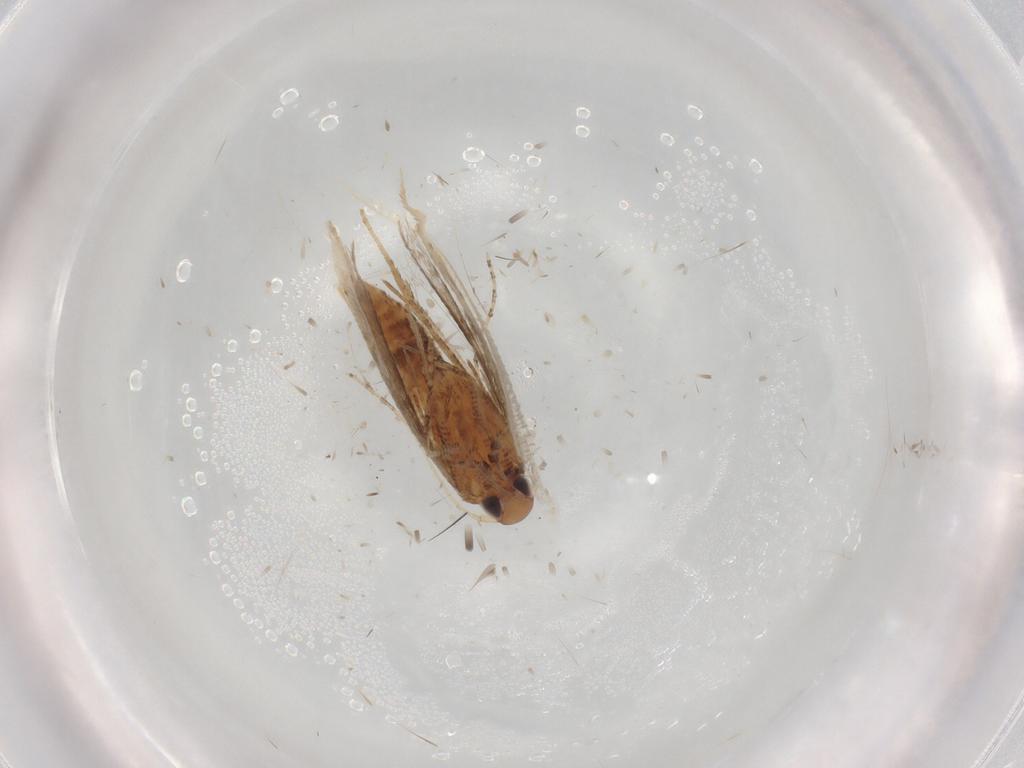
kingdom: Animalia
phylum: Arthropoda
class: Insecta
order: Lepidoptera
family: Crambidae
